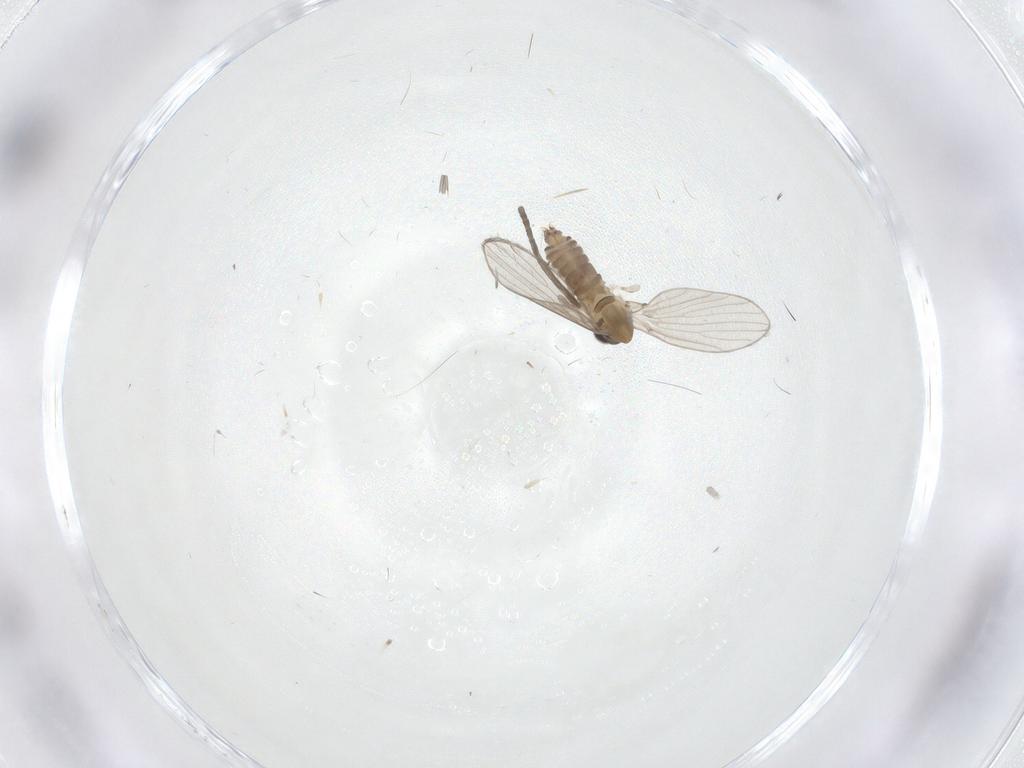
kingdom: Animalia
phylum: Arthropoda
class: Insecta
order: Diptera
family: Psychodidae
